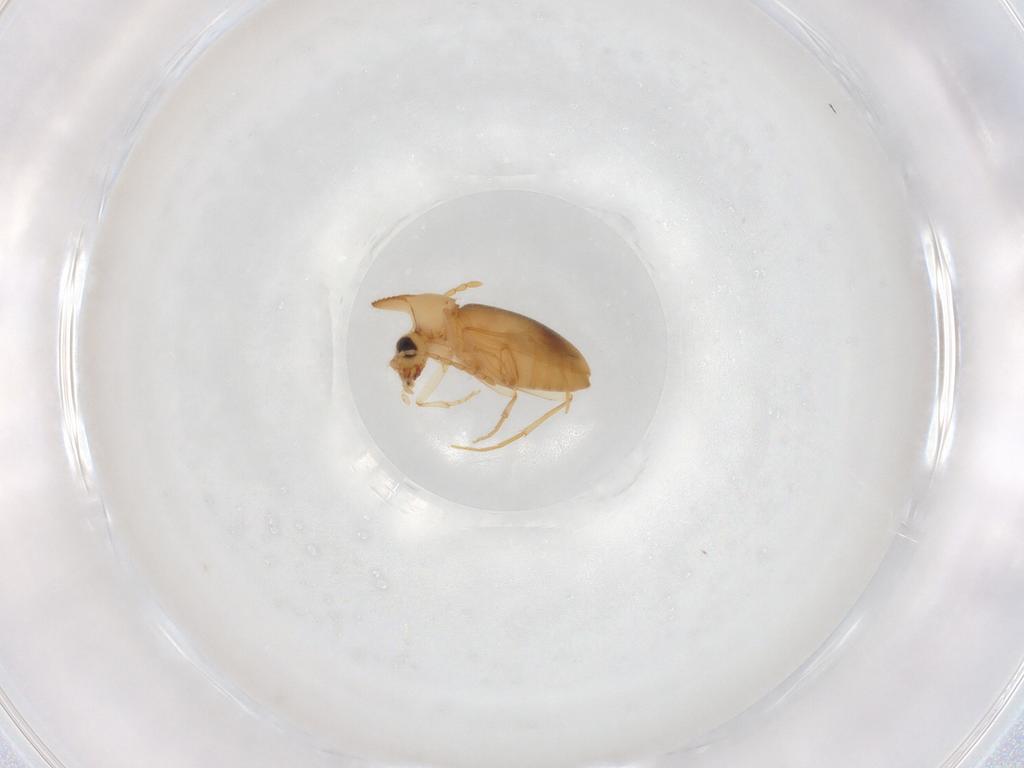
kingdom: Animalia
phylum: Arthropoda
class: Insecta
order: Coleoptera
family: Anthicidae
